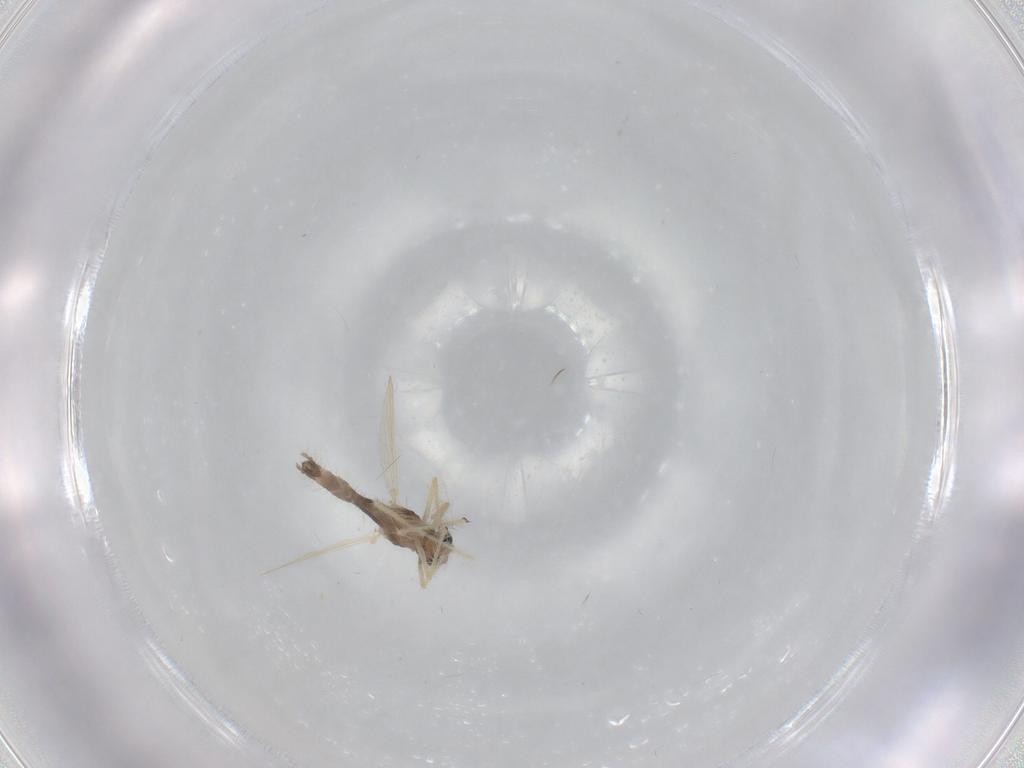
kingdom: Animalia
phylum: Arthropoda
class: Insecta
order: Diptera
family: Chironomidae
